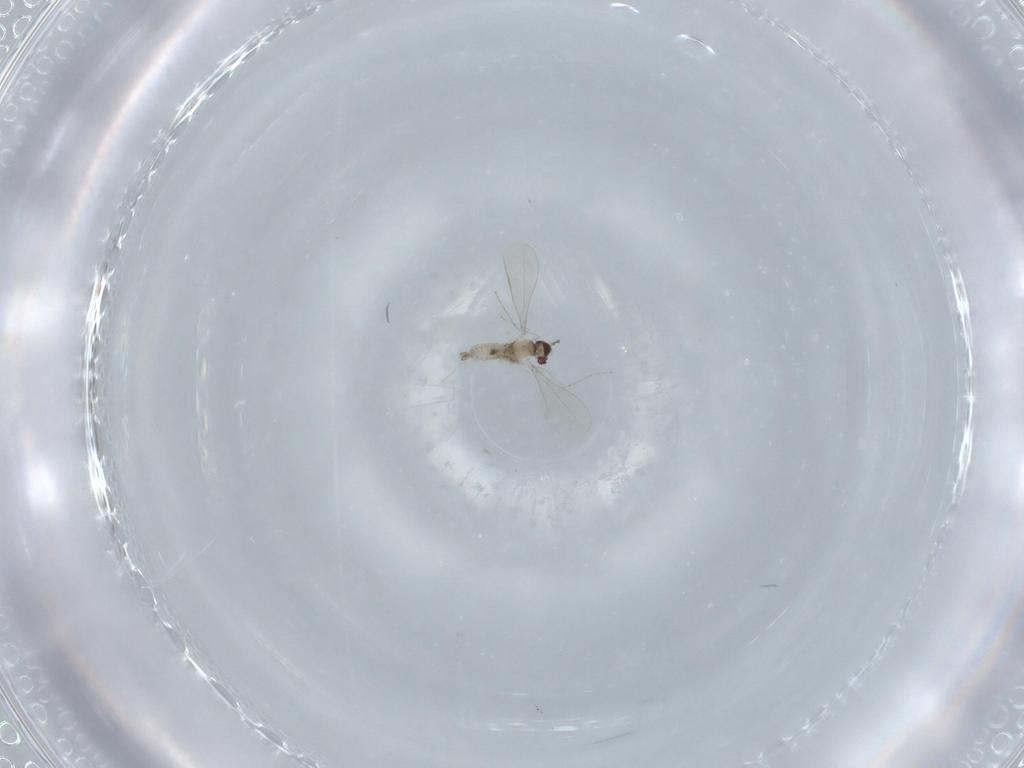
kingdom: Animalia
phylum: Arthropoda
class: Insecta
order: Diptera
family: Cecidomyiidae
